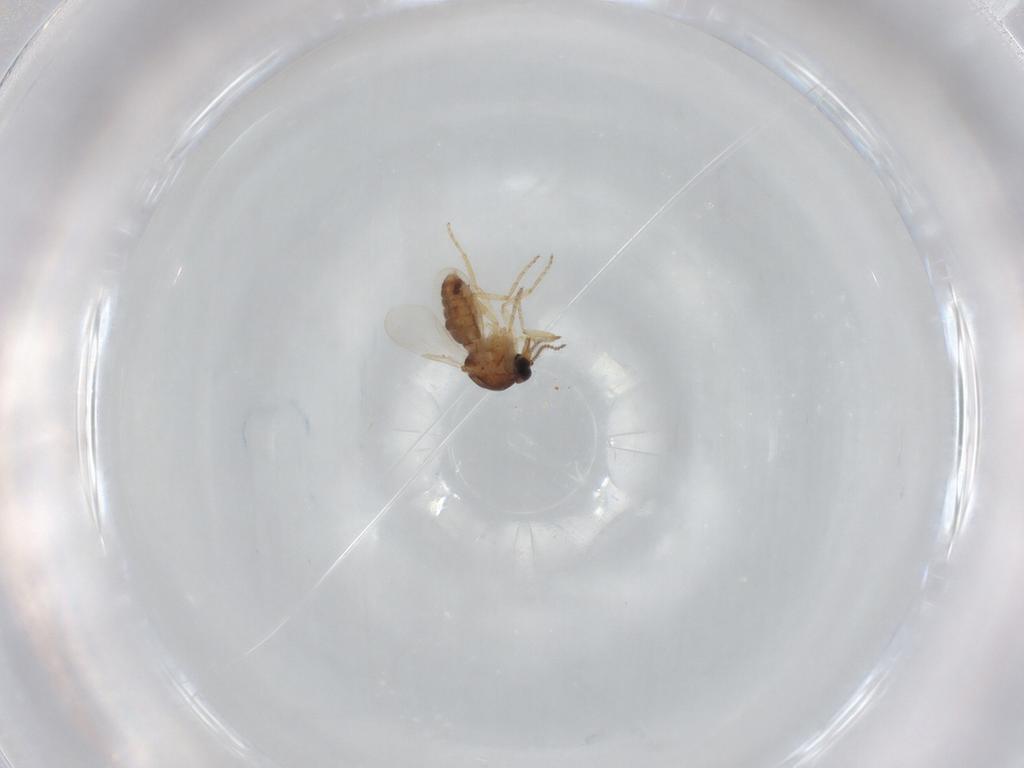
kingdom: Animalia
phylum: Arthropoda
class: Insecta
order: Diptera
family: Ceratopogonidae
